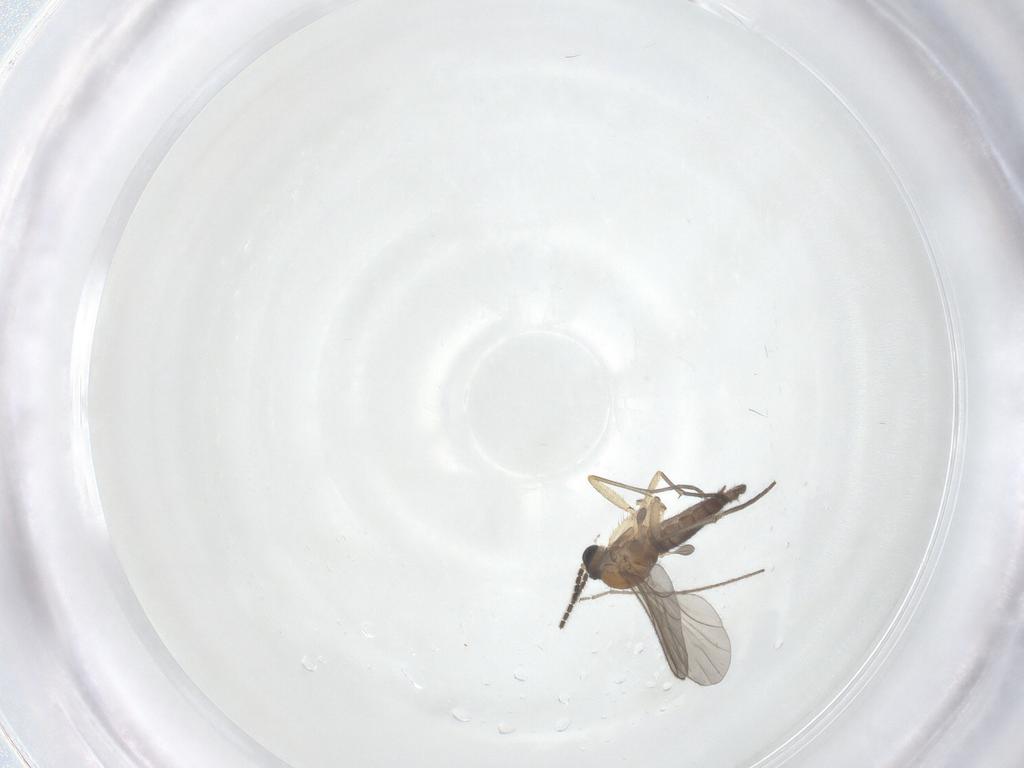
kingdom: Animalia
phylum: Arthropoda
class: Insecta
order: Diptera
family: Sciaridae
